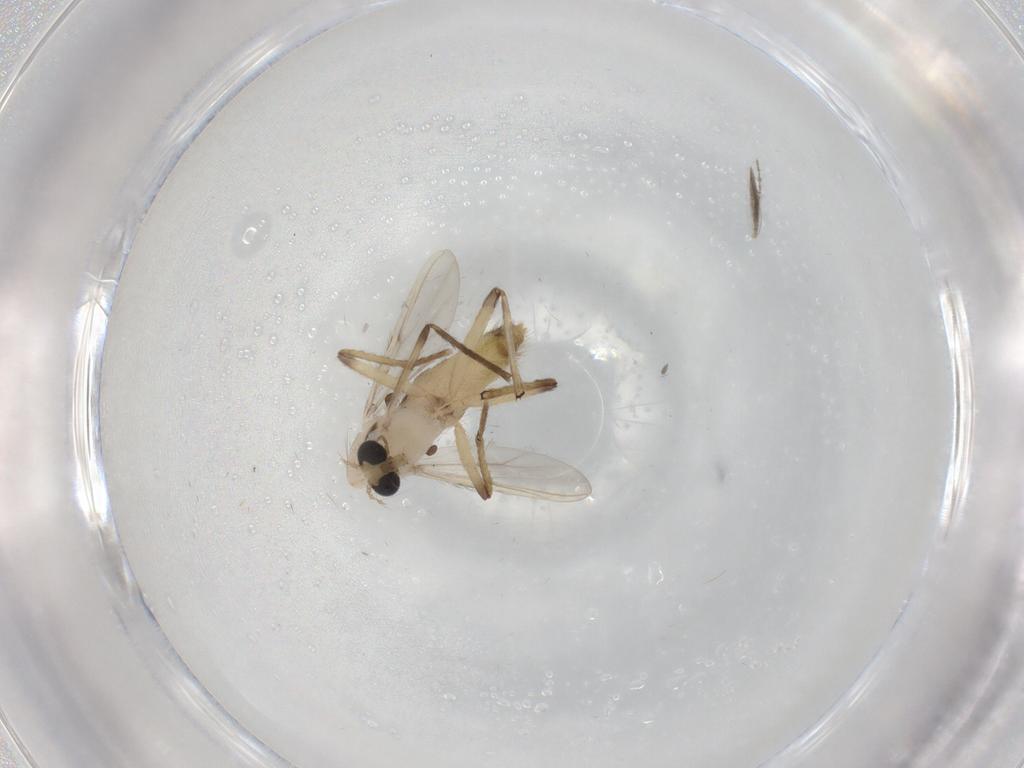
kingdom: Animalia
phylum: Arthropoda
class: Insecta
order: Diptera
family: Chironomidae
